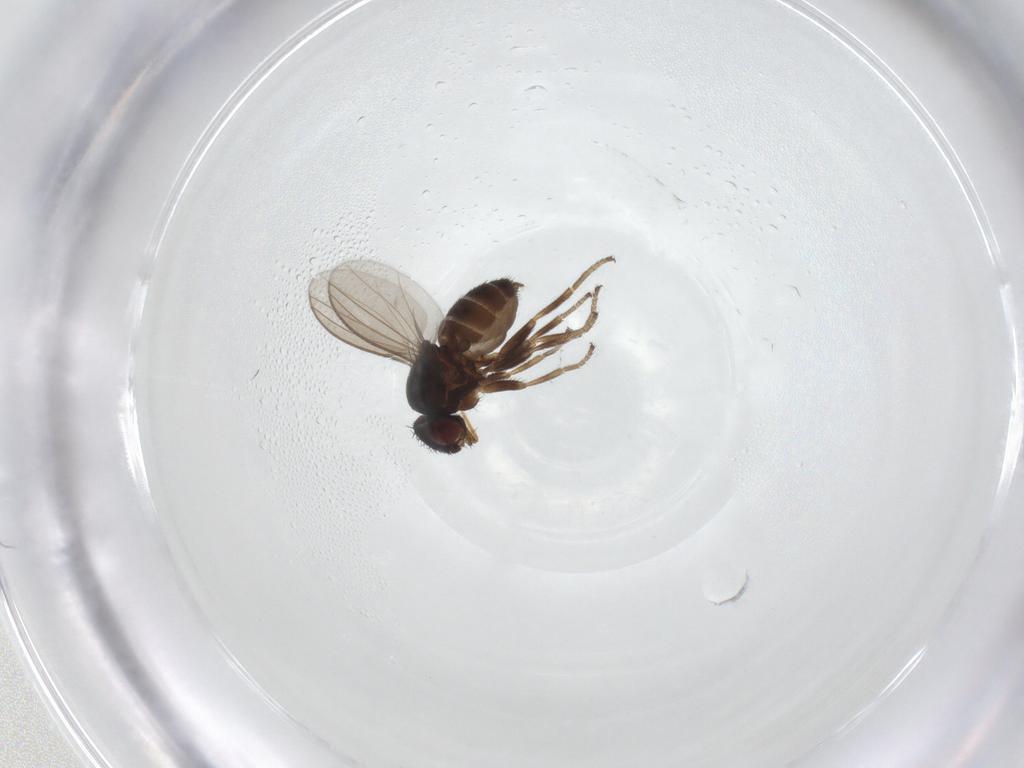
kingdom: Animalia
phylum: Arthropoda
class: Insecta
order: Diptera
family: Milichiidae
